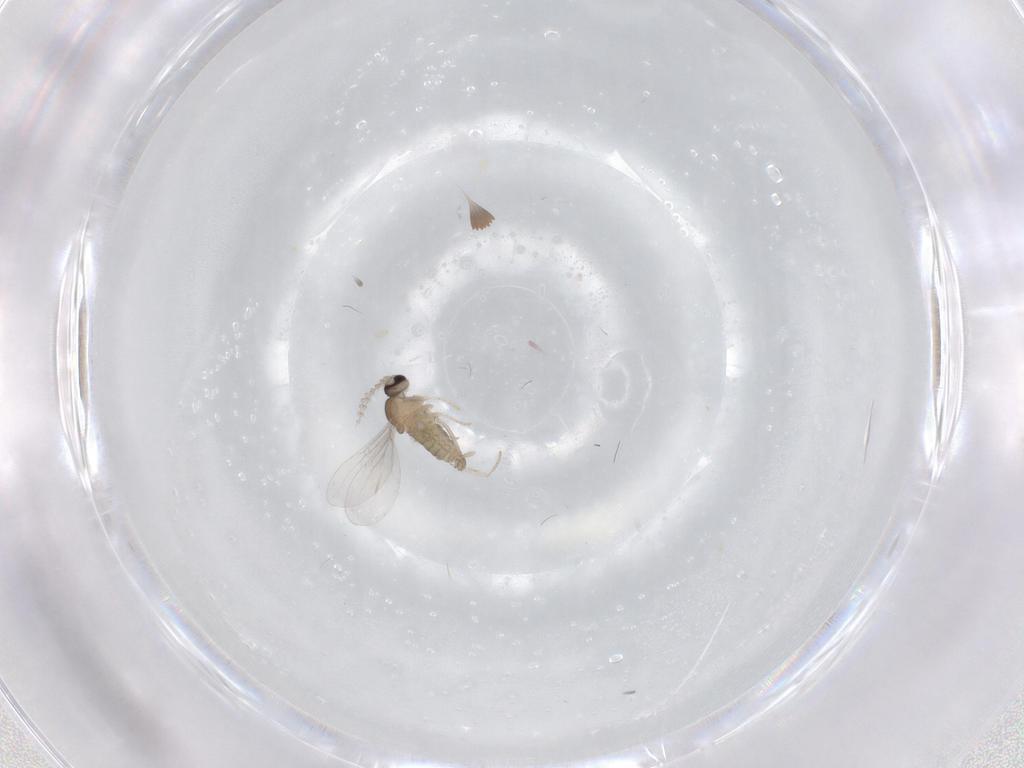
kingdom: Animalia
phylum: Arthropoda
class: Insecta
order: Diptera
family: Cecidomyiidae
